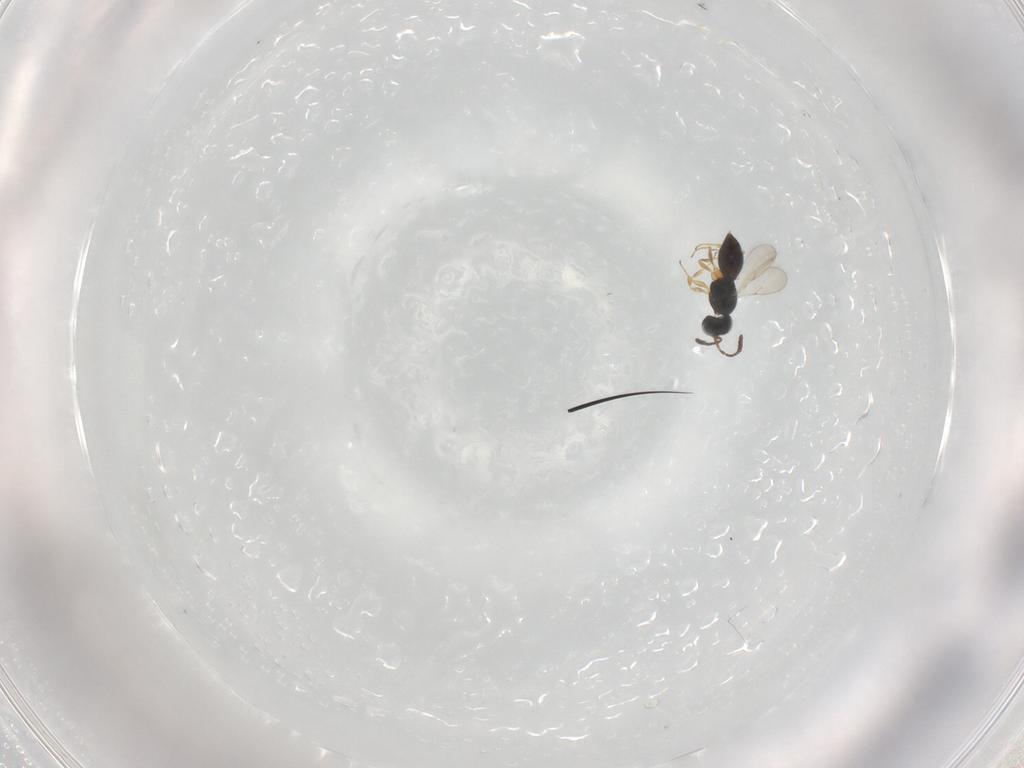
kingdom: Animalia
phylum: Arthropoda
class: Insecta
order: Hymenoptera
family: Scelionidae
